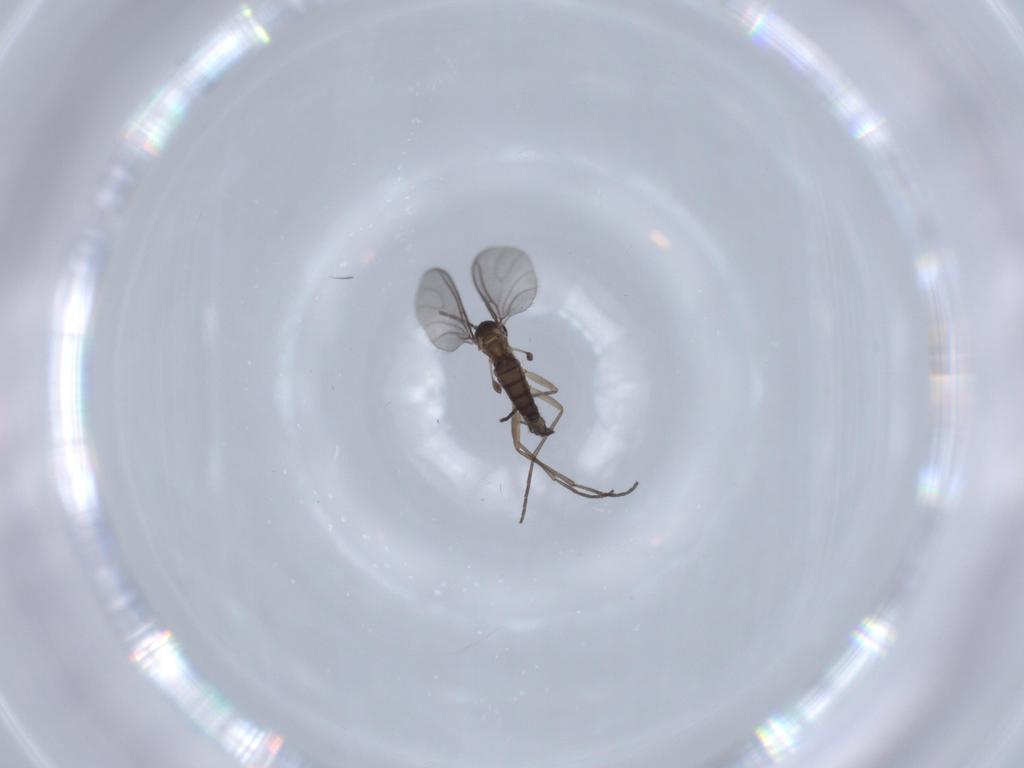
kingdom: Animalia
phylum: Arthropoda
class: Insecta
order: Diptera
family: Sciaridae
